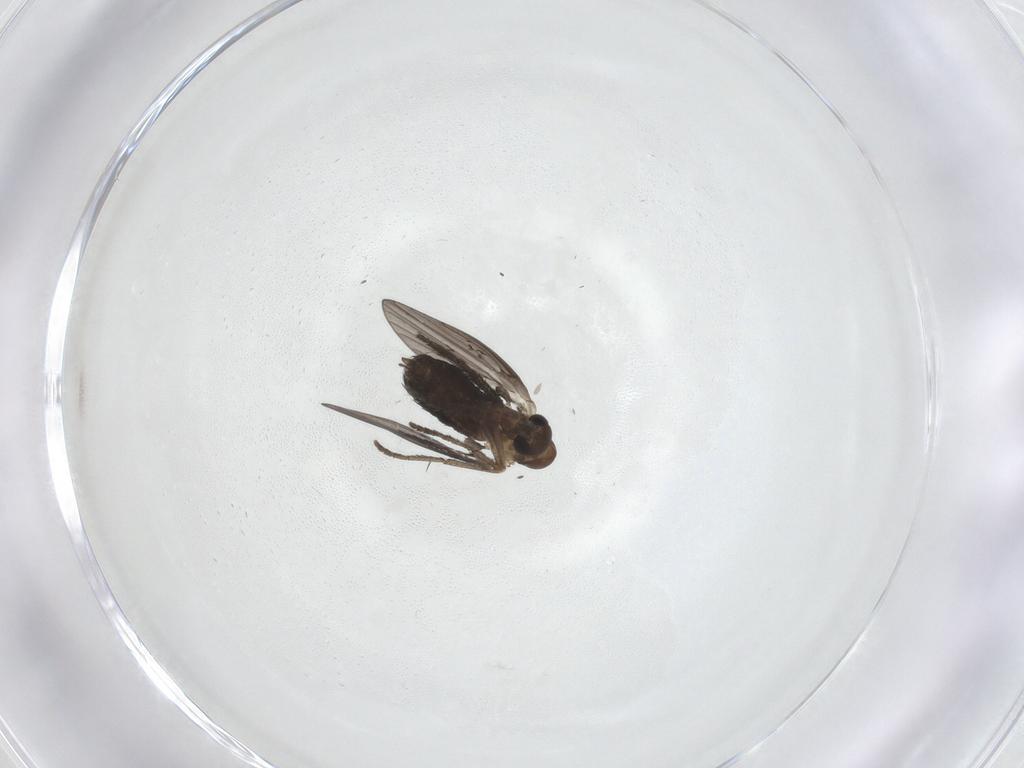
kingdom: Animalia
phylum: Arthropoda
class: Insecta
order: Diptera
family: Psychodidae
